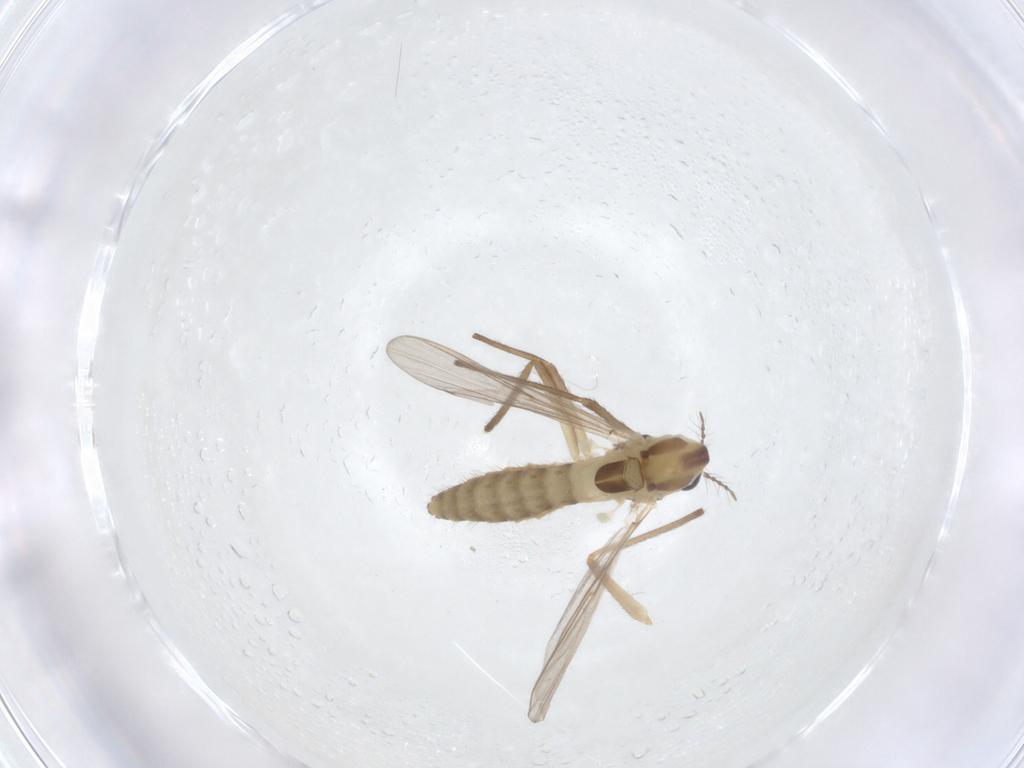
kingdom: Animalia
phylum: Arthropoda
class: Insecta
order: Diptera
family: Chironomidae
